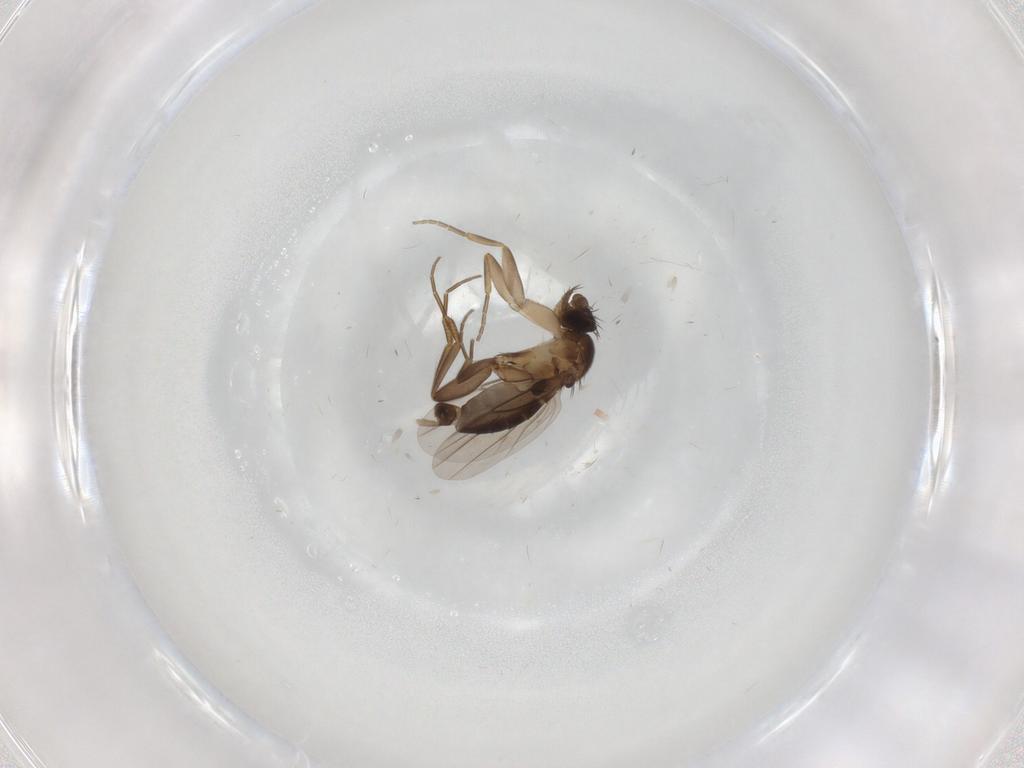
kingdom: Animalia
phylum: Arthropoda
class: Insecta
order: Diptera
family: Phoridae
